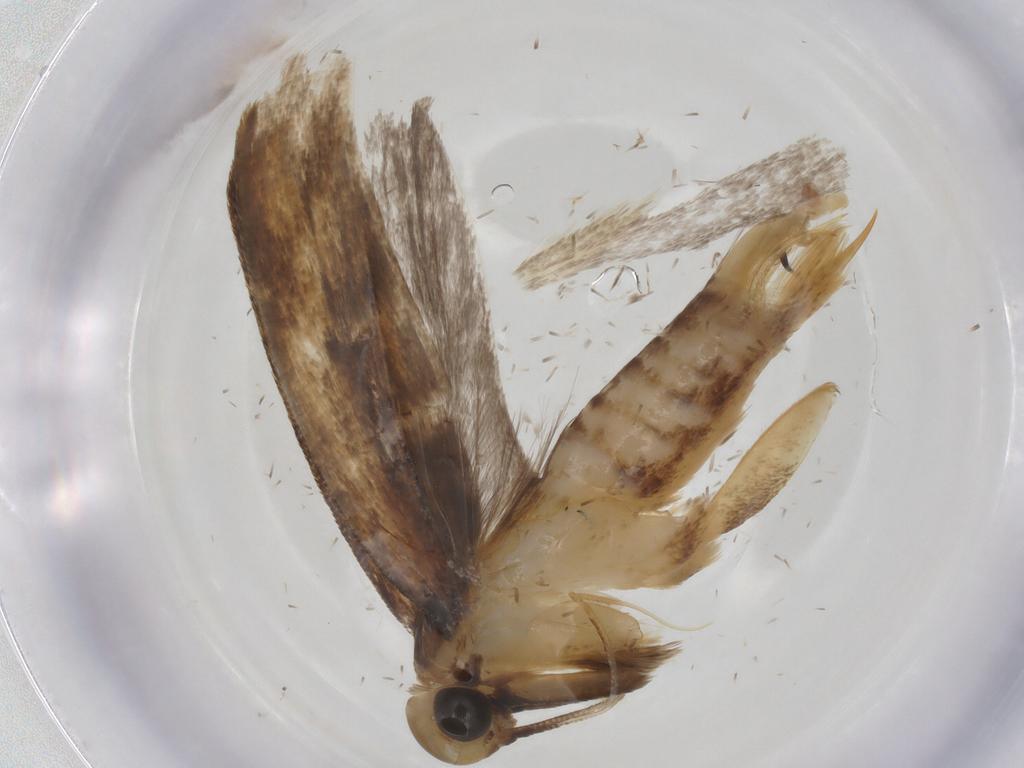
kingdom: Animalia
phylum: Arthropoda
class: Insecta
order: Lepidoptera
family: Gelechiidae
